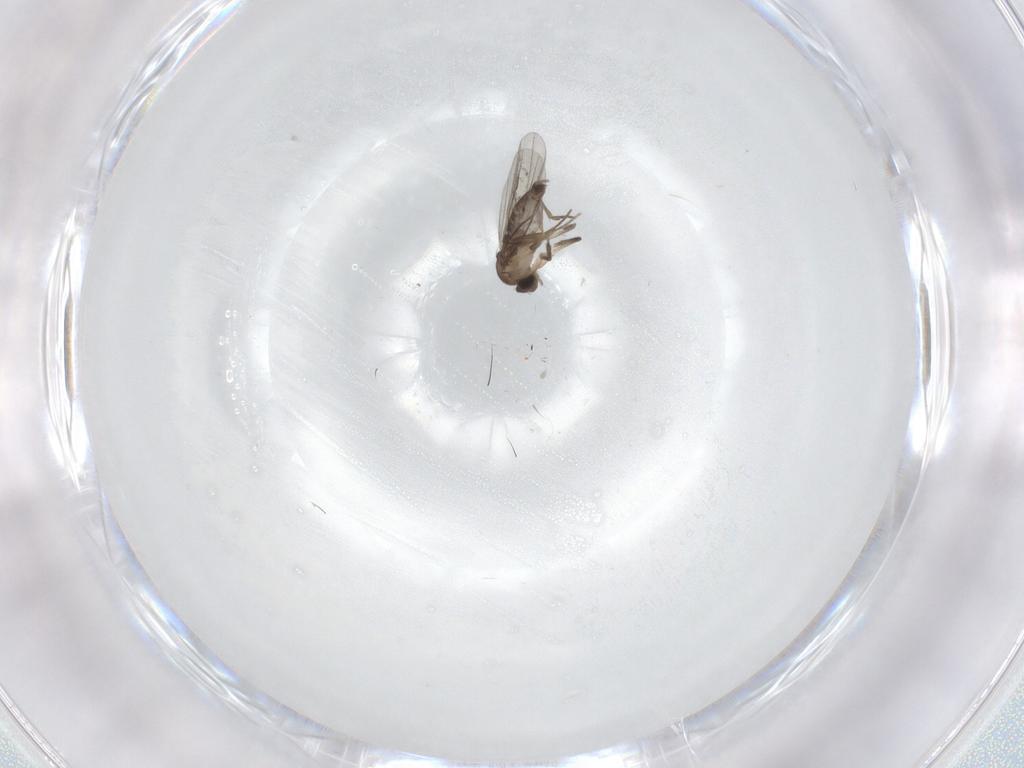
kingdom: Animalia
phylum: Arthropoda
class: Insecta
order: Diptera
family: Phoridae
